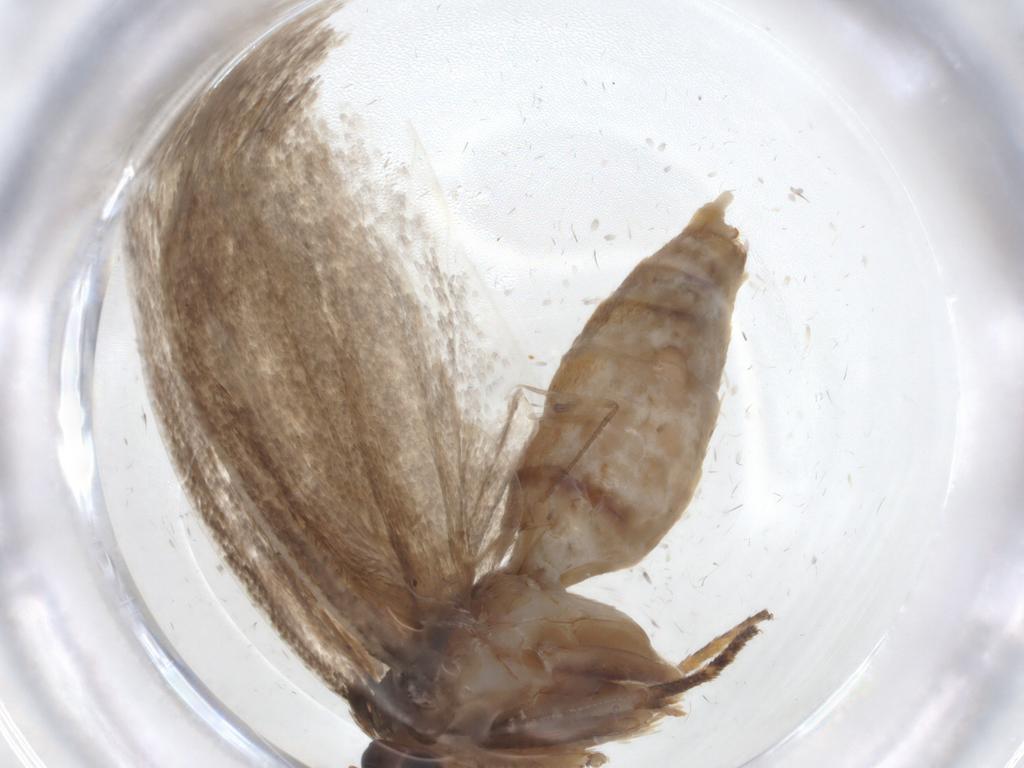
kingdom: Animalia
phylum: Arthropoda
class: Insecta
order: Lepidoptera
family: Oecophoridae
